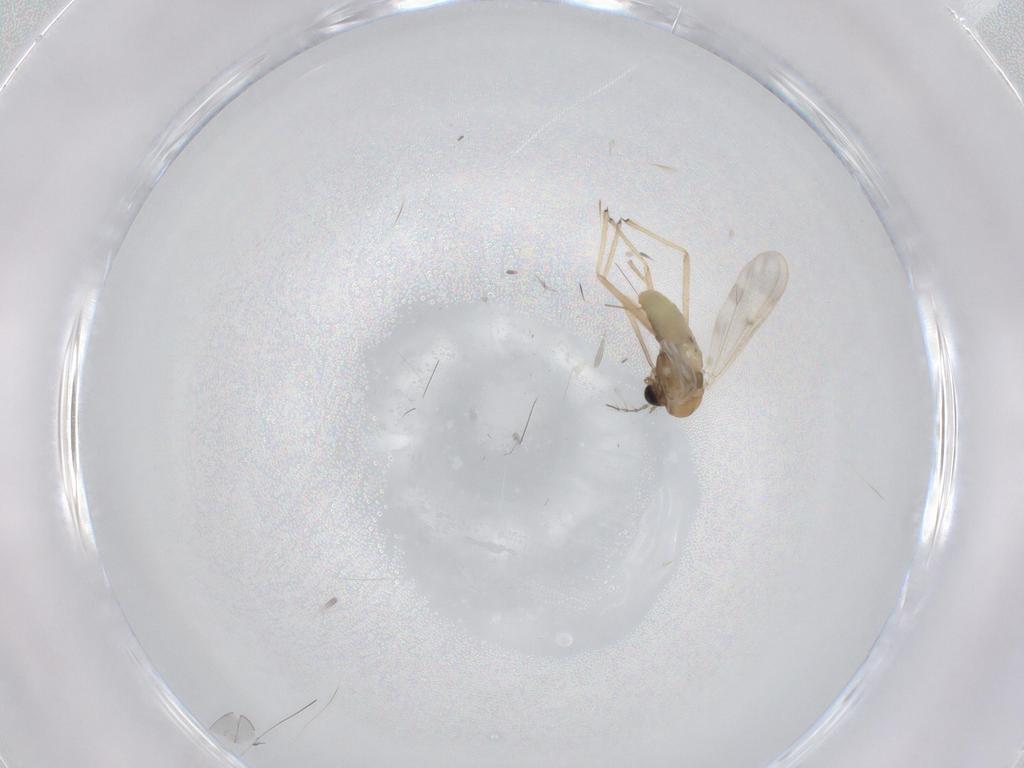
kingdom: Animalia
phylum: Arthropoda
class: Insecta
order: Diptera
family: Chironomidae
